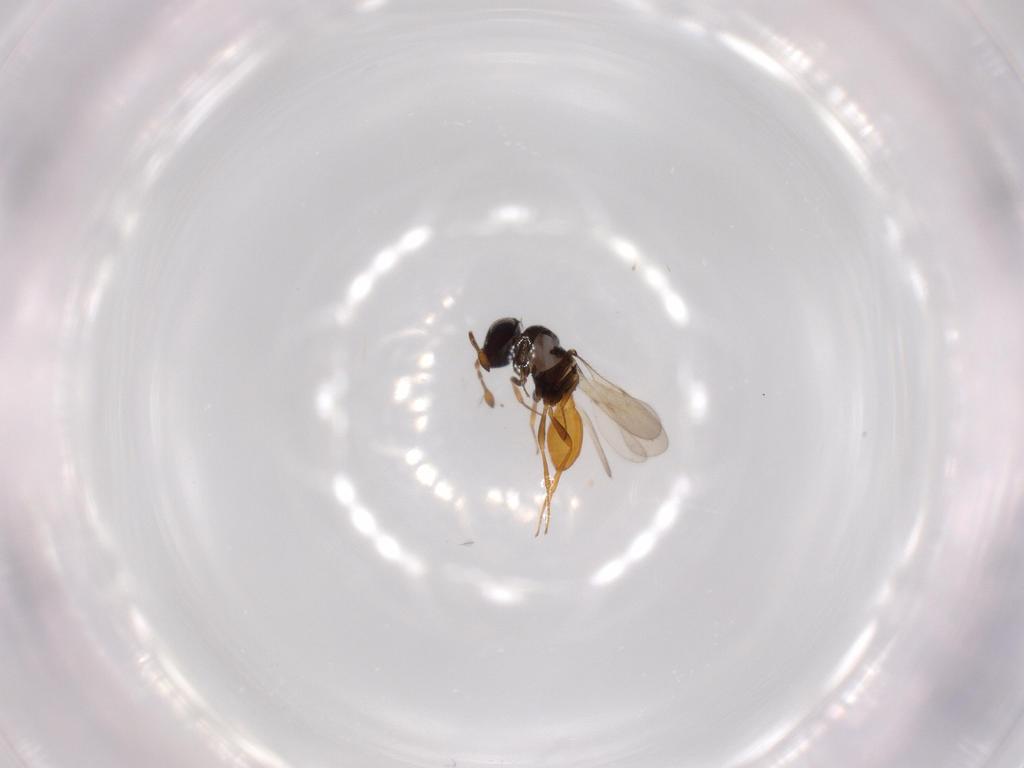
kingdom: Animalia
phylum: Arthropoda
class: Insecta
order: Hymenoptera
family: Scelionidae
